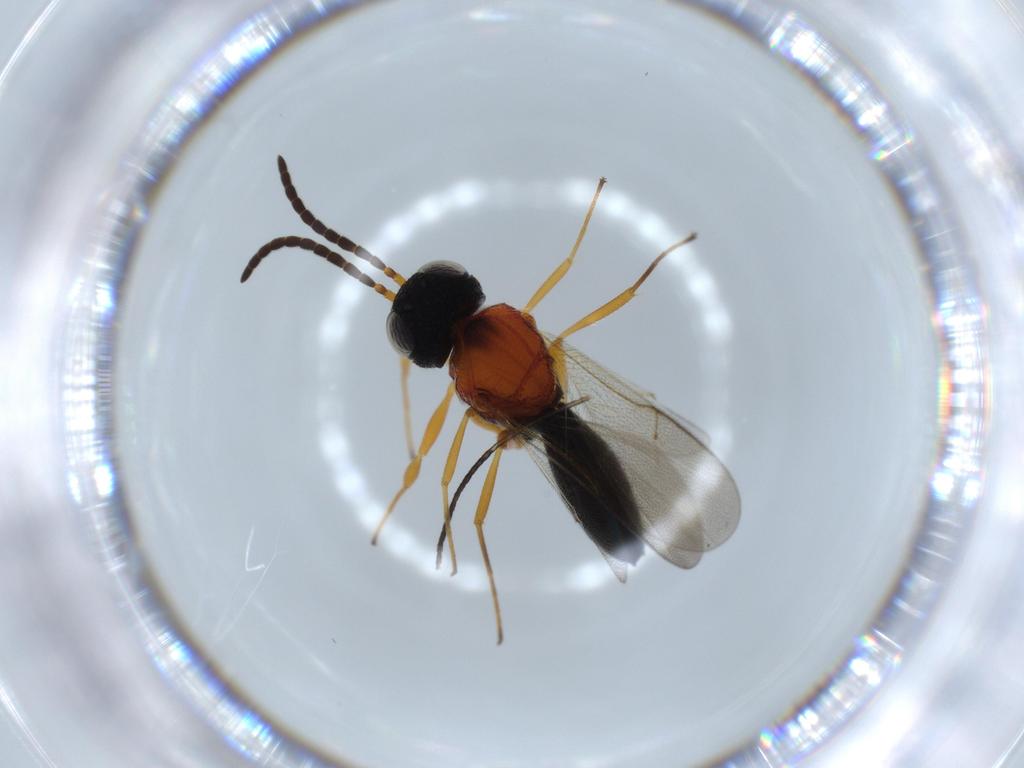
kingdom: Animalia
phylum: Arthropoda
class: Insecta
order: Hymenoptera
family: Scelionidae
